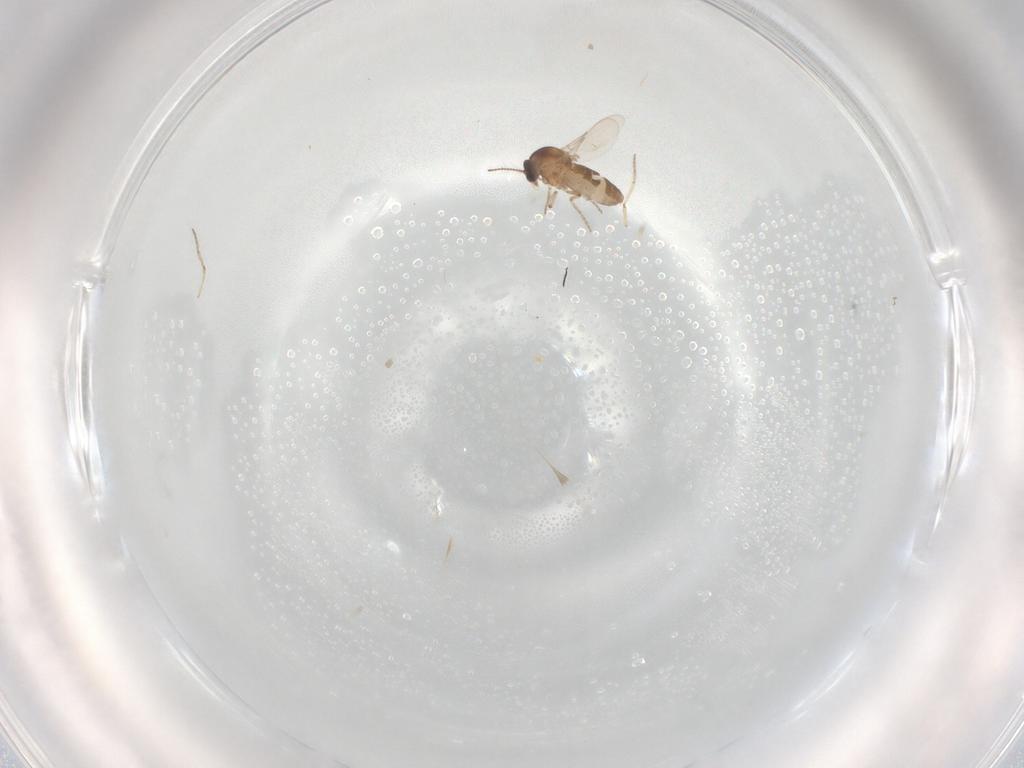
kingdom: Animalia
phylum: Arthropoda
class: Insecta
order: Diptera
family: Ceratopogonidae
